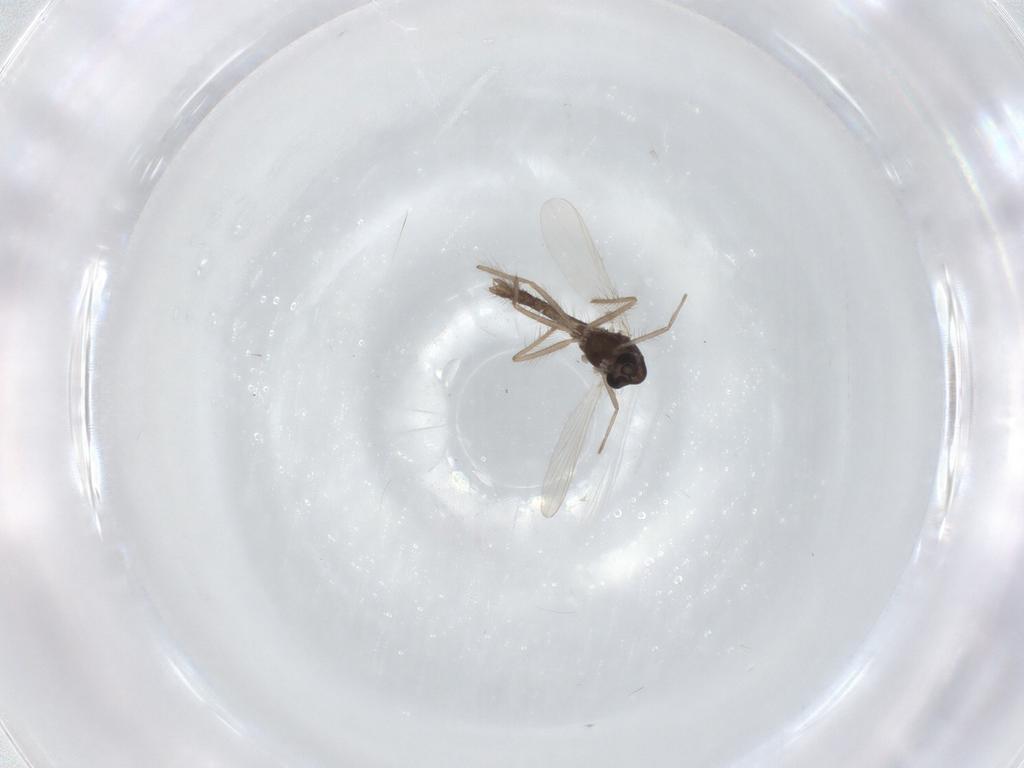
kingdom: Animalia
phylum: Arthropoda
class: Insecta
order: Diptera
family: Chironomidae
